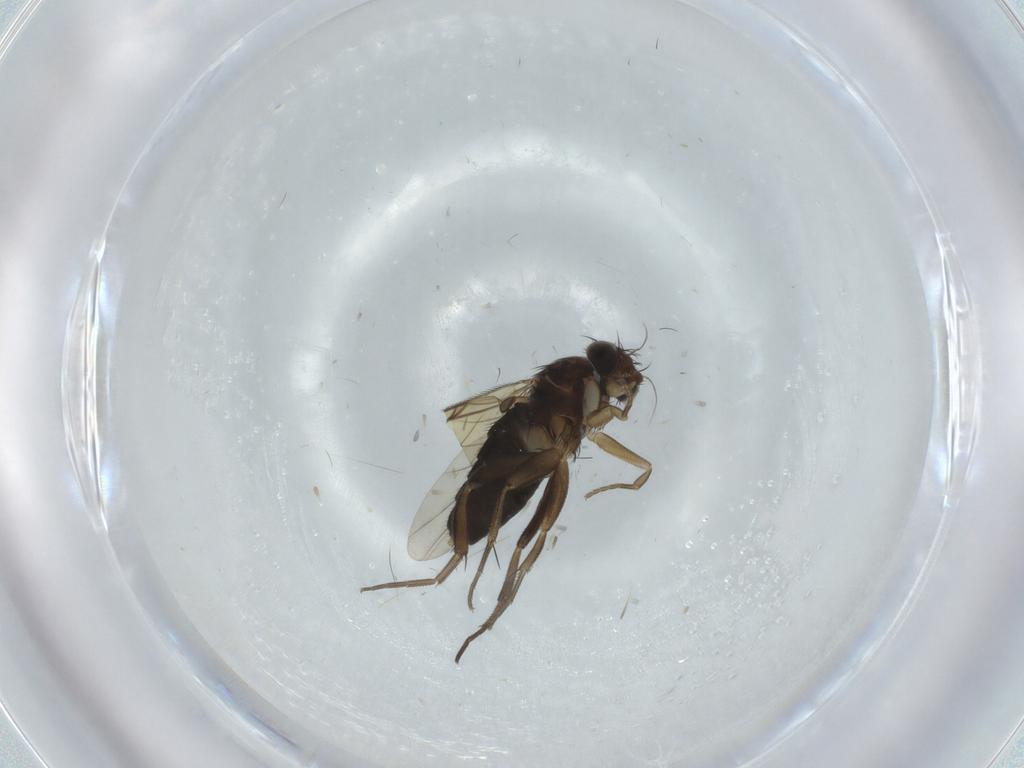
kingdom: Animalia
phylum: Arthropoda
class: Insecta
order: Diptera
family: Phoridae
